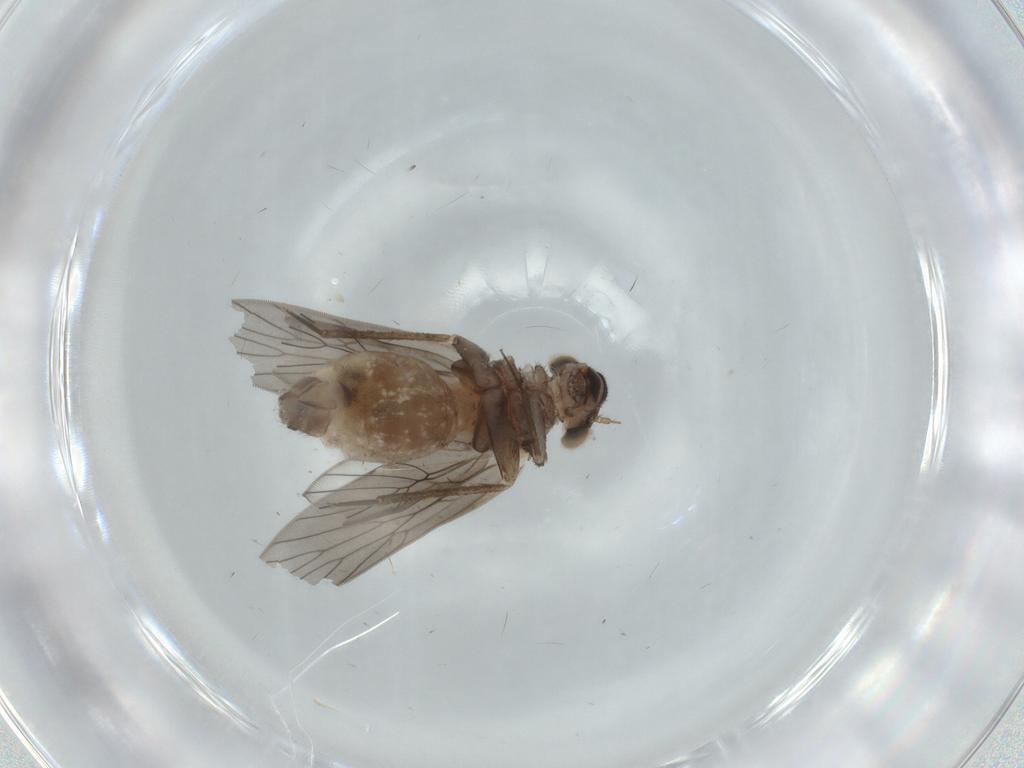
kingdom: Animalia
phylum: Arthropoda
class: Insecta
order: Psocodea
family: Lepidopsocidae
